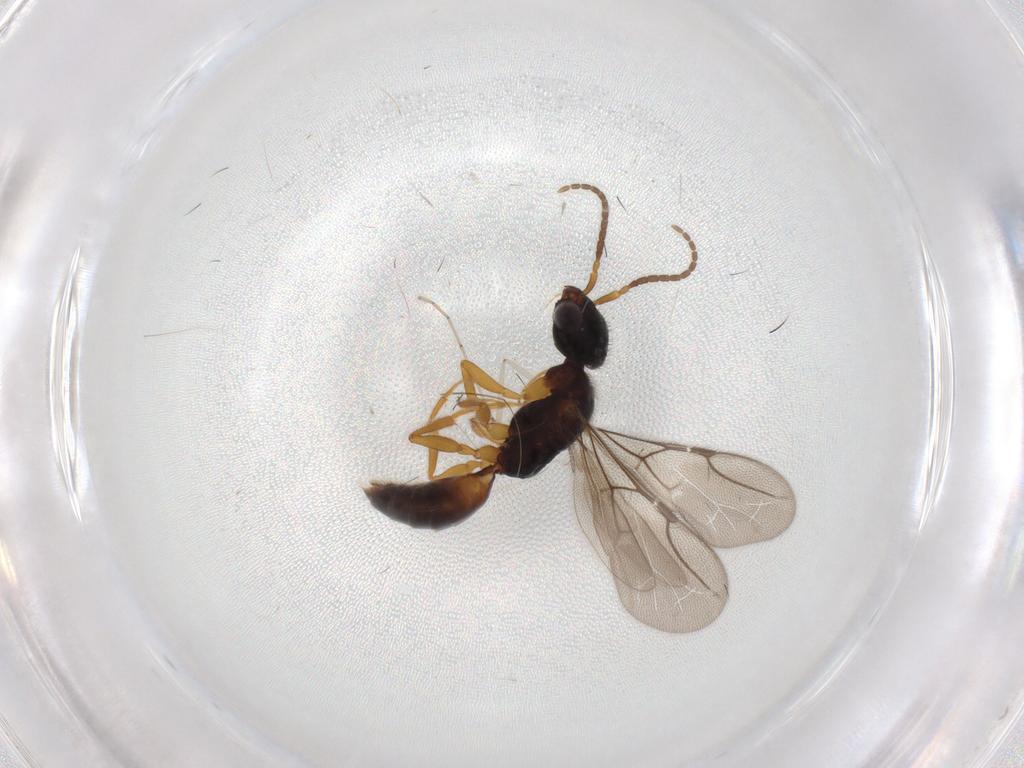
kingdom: Animalia
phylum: Arthropoda
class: Insecta
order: Hymenoptera
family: Bethylidae
